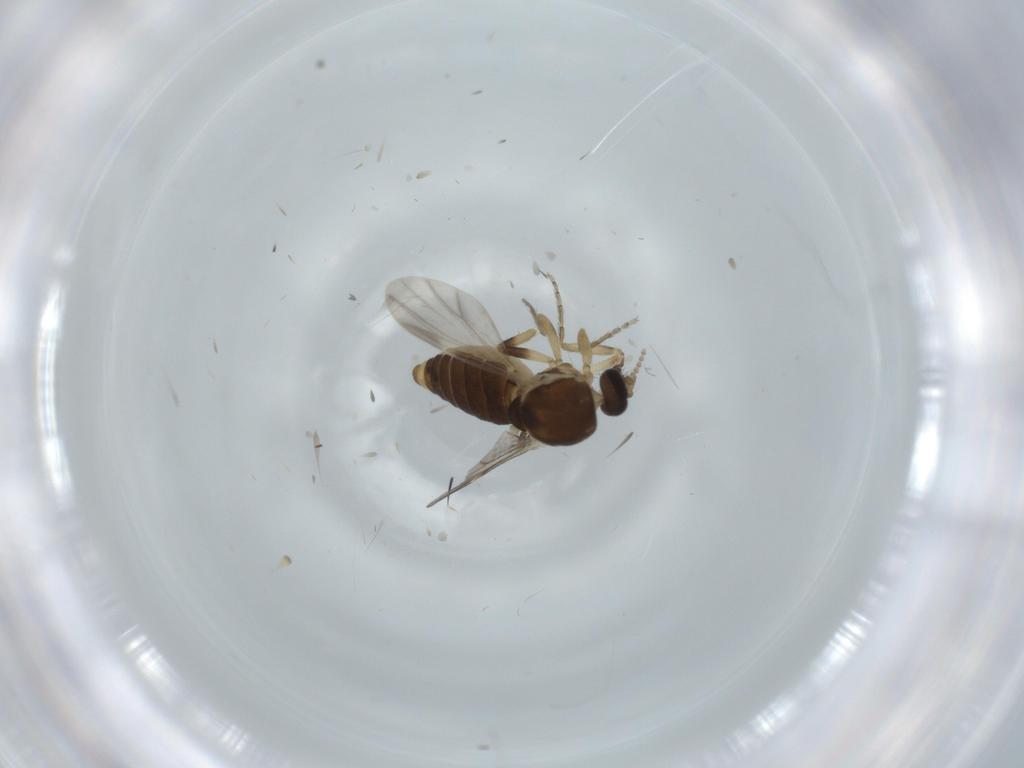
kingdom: Animalia
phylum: Arthropoda
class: Insecta
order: Diptera
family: Ceratopogonidae
